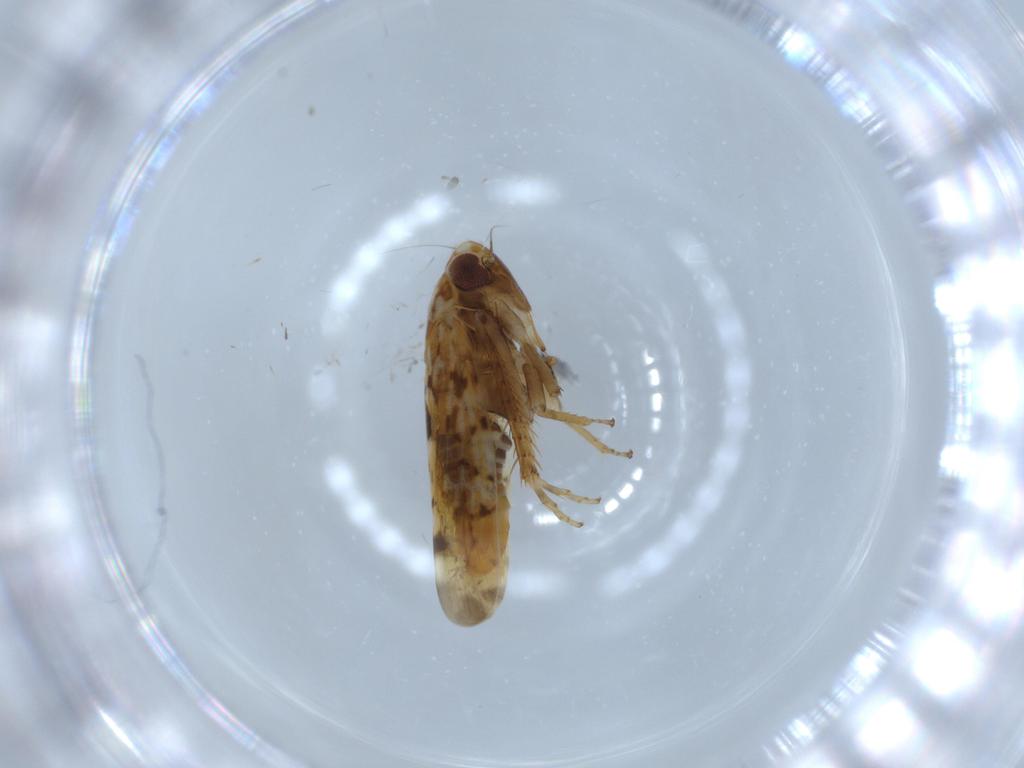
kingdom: Animalia
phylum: Arthropoda
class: Insecta
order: Hemiptera
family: Cicadellidae
